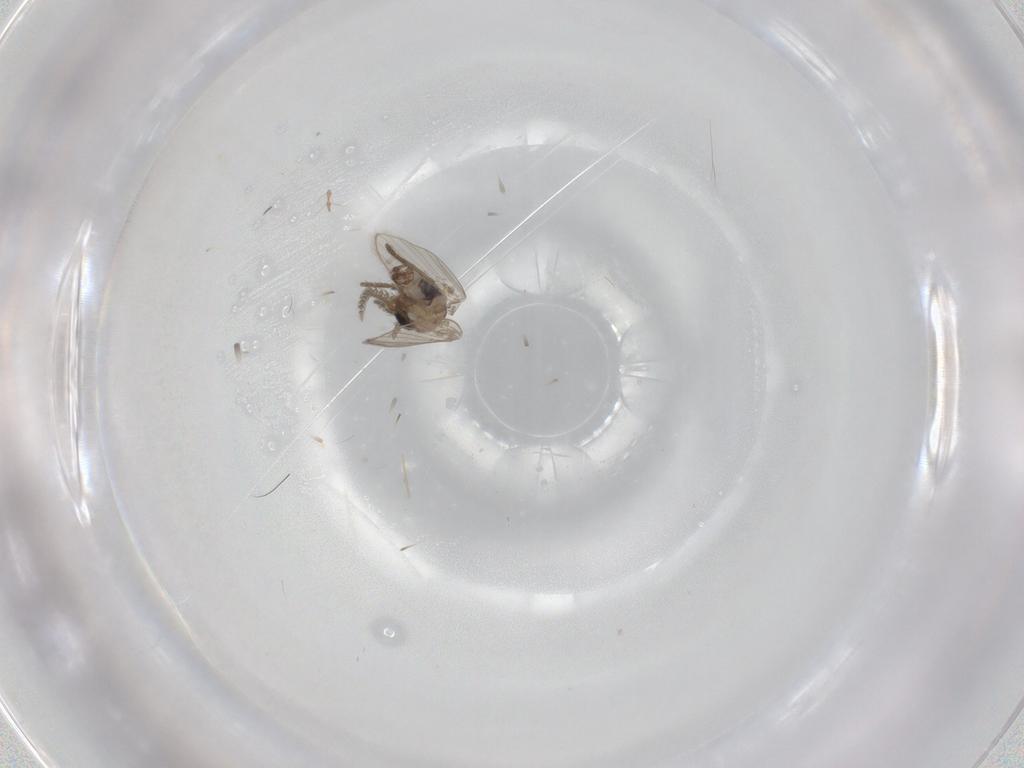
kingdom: Animalia
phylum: Arthropoda
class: Insecta
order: Diptera
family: Psychodidae
